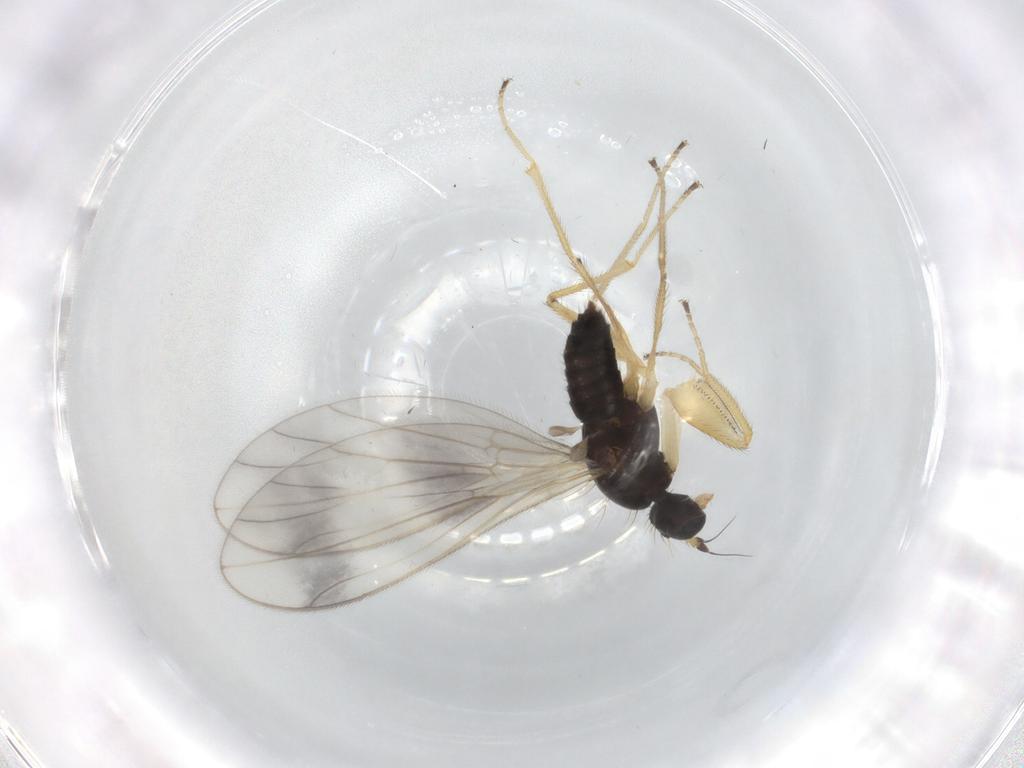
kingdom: Animalia
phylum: Arthropoda
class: Insecta
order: Diptera
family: Chironomidae
